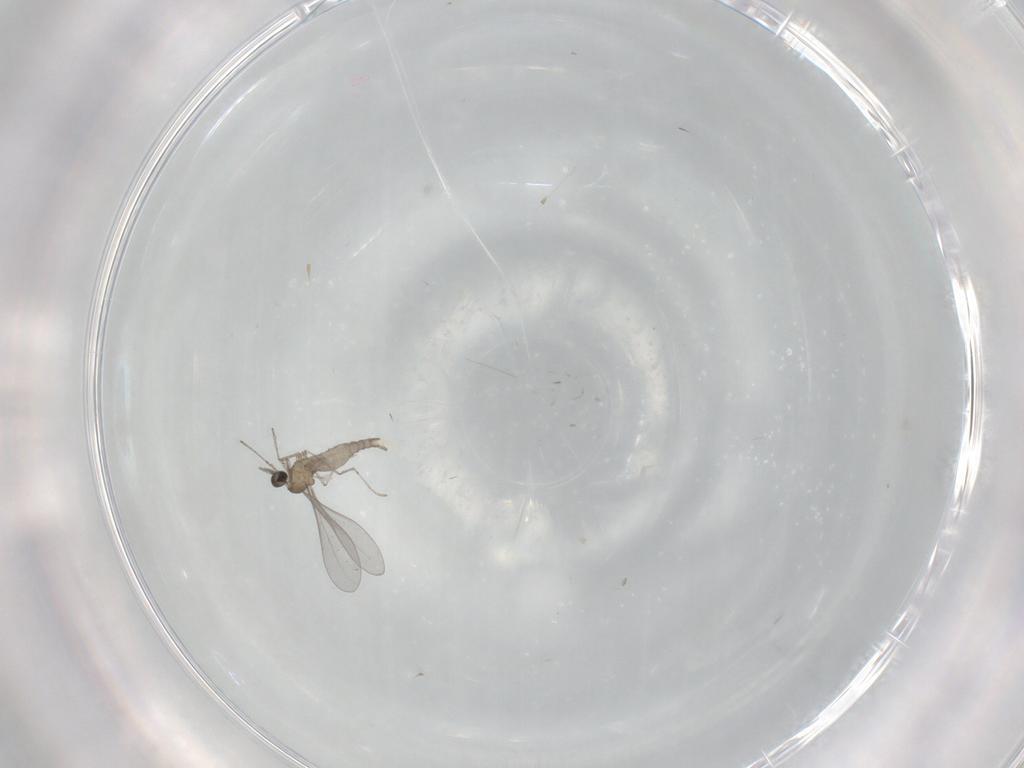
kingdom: Animalia
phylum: Arthropoda
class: Insecta
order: Diptera
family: Cecidomyiidae
